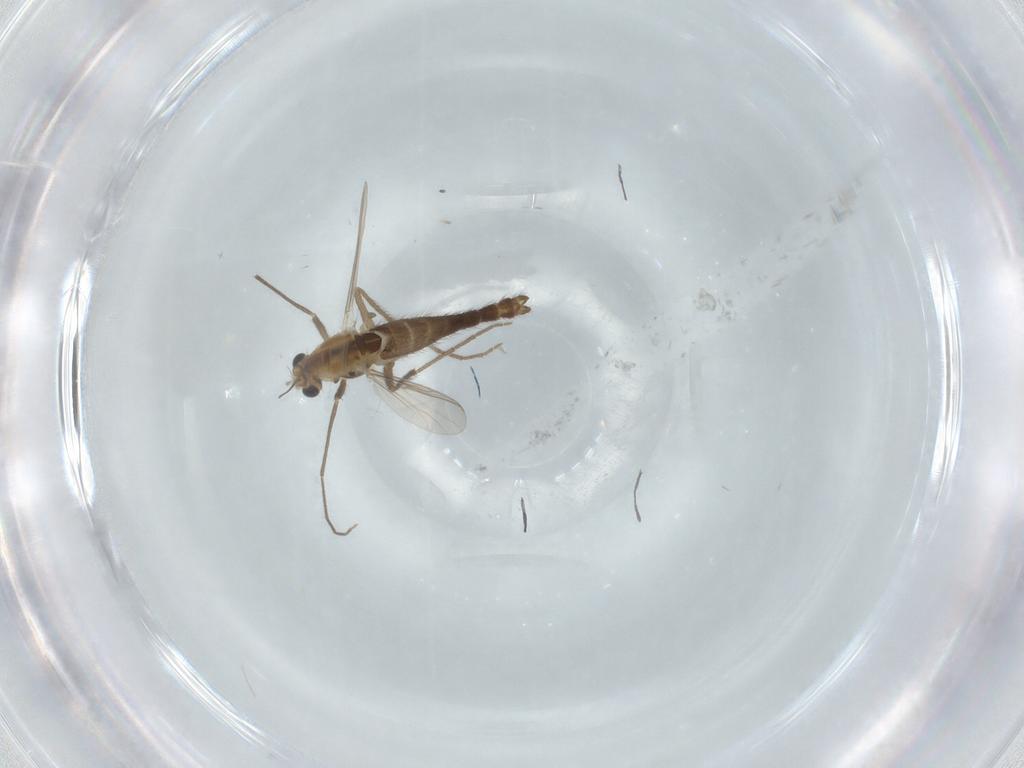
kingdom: Animalia
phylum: Arthropoda
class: Insecta
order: Diptera
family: Chironomidae
